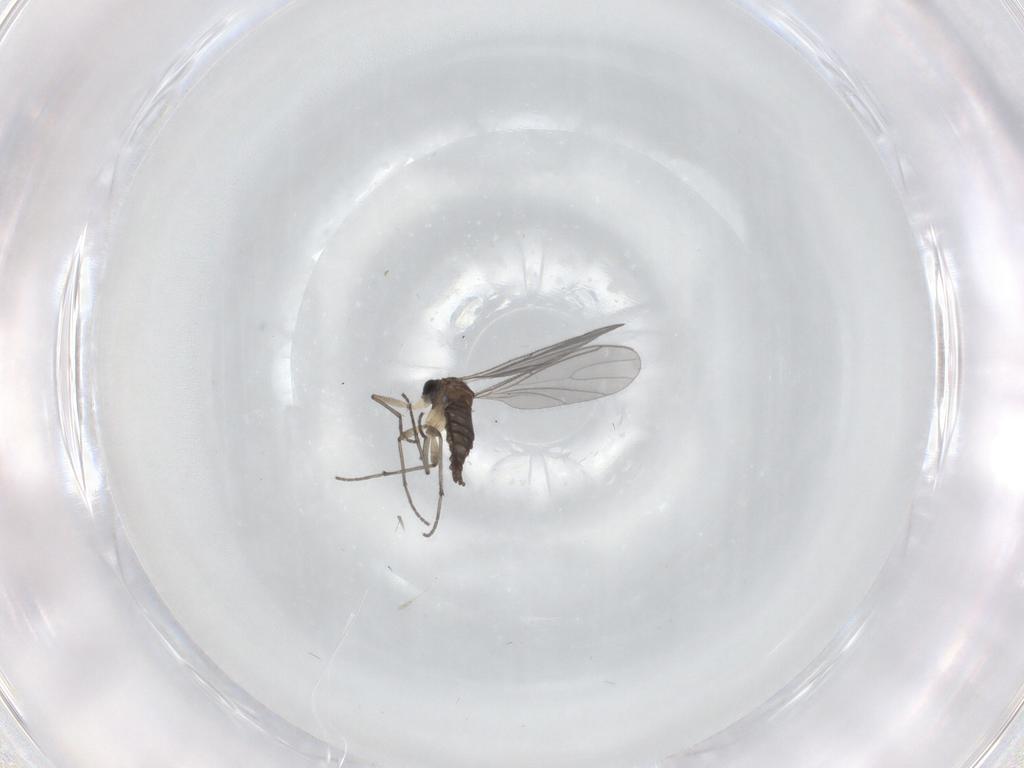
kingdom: Animalia
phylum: Arthropoda
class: Insecta
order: Diptera
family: Sciaridae
